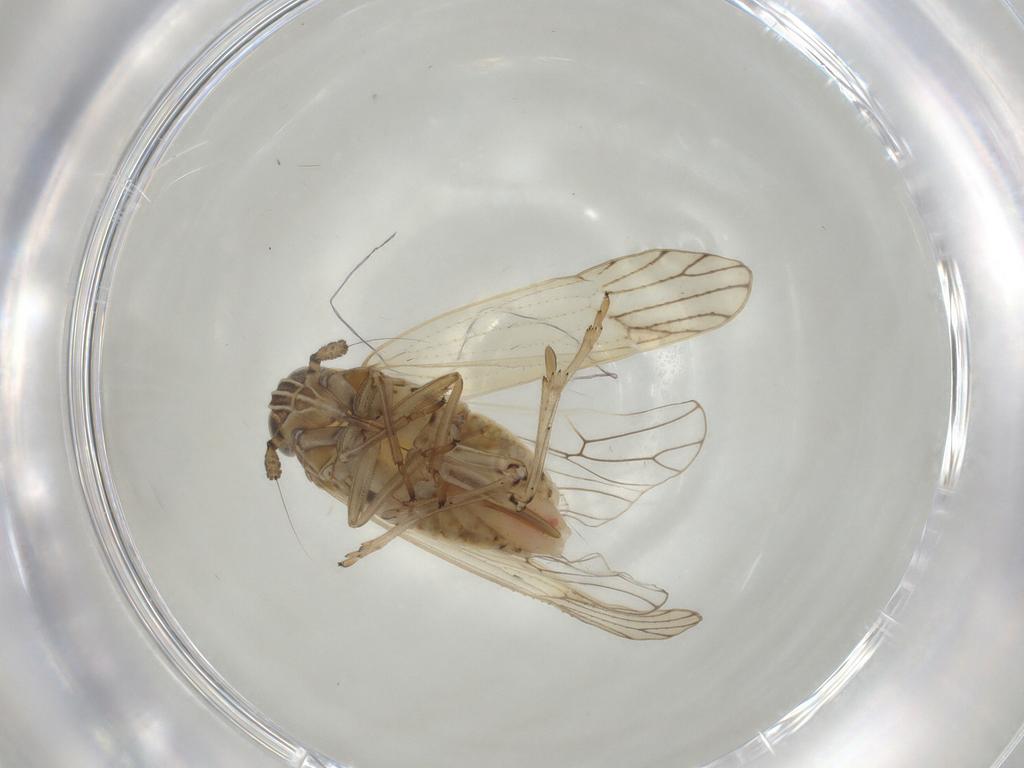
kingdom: Animalia
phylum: Arthropoda
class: Insecta
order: Hemiptera
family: Delphacidae
